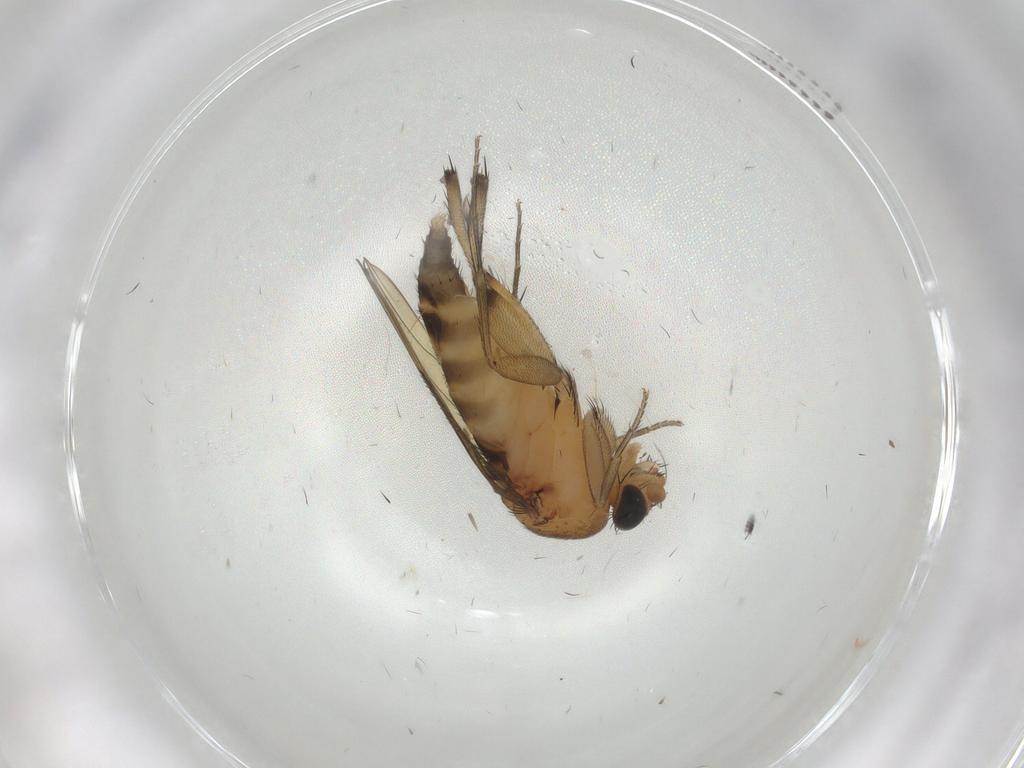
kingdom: Animalia
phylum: Arthropoda
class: Insecta
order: Diptera
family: Phoridae
